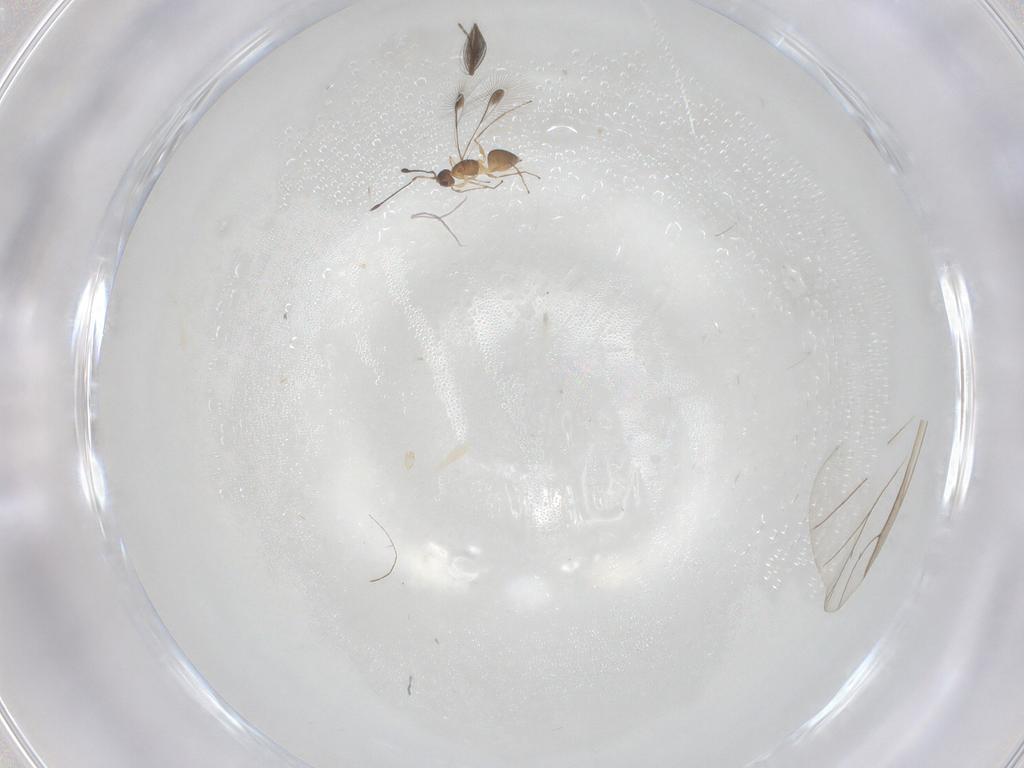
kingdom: Animalia
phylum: Arthropoda
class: Insecta
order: Hymenoptera
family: Mymaridae
